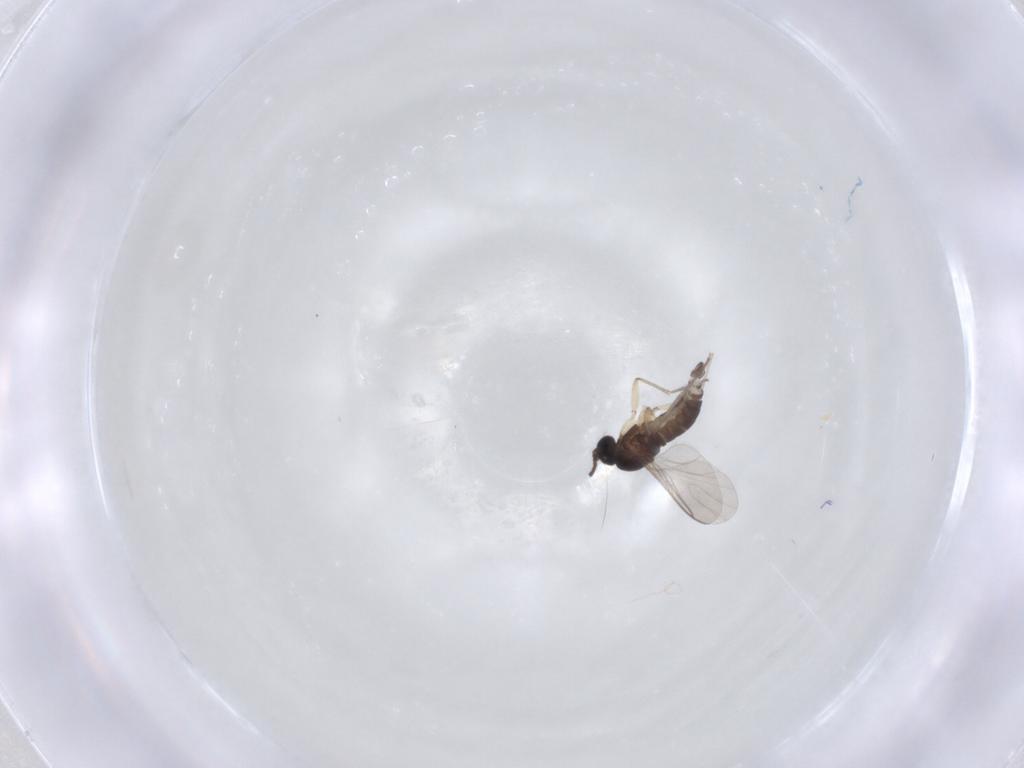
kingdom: Animalia
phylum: Arthropoda
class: Insecta
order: Diptera
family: Sciaridae
